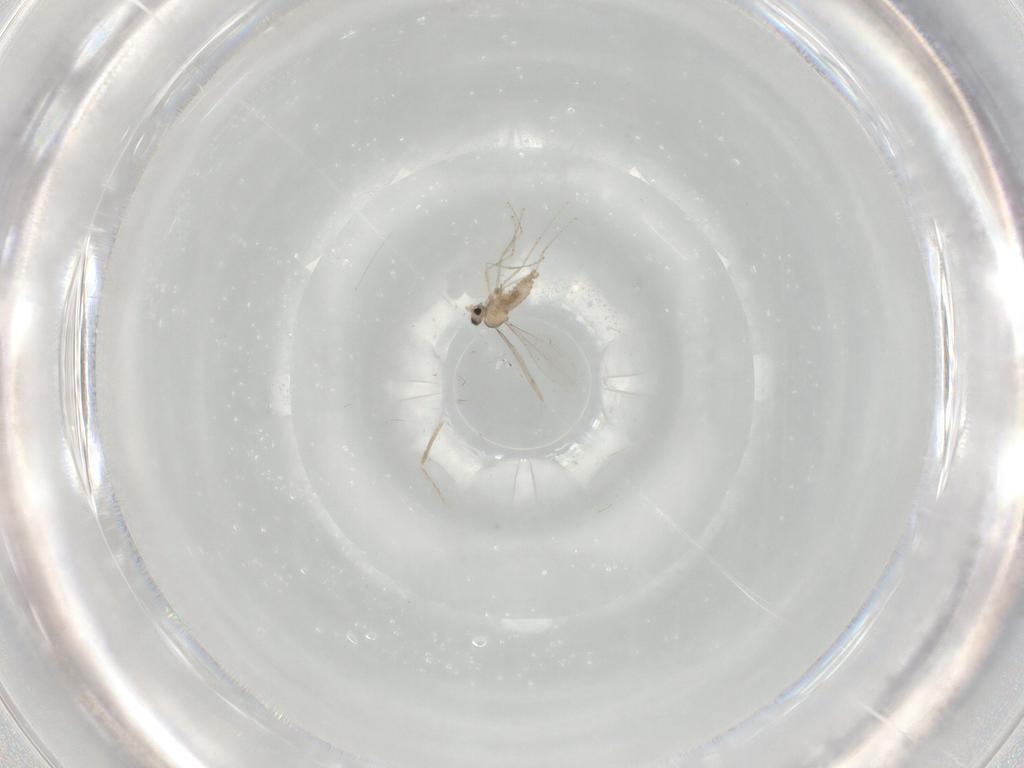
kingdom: Animalia
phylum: Arthropoda
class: Insecta
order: Diptera
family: Cecidomyiidae
